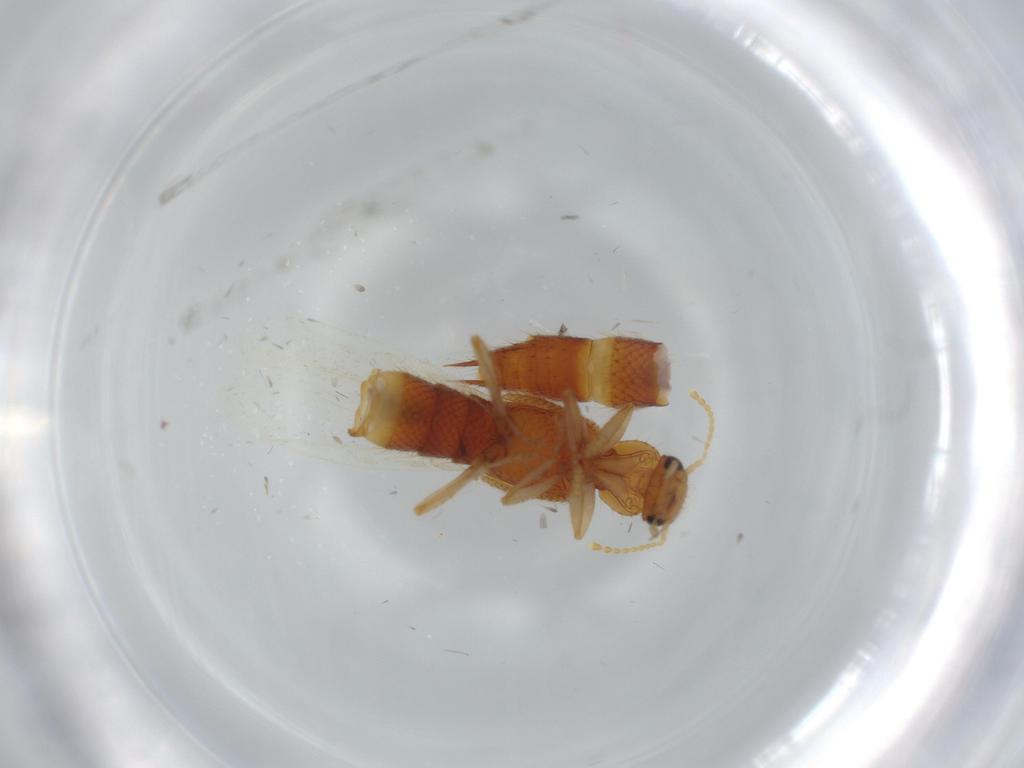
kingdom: Animalia
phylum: Arthropoda
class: Insecta
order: Coleoptera
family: Staphylinidae
